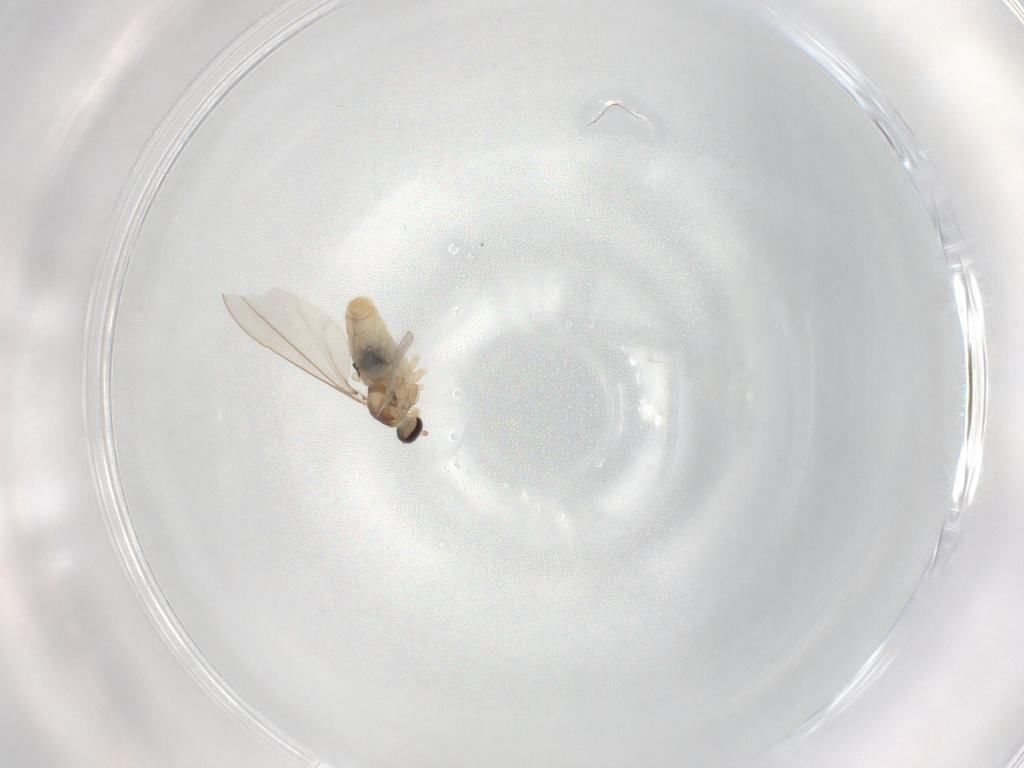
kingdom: Animalia
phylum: Arthropoda
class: Insecta
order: Diptera
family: Cecidomyiidae
